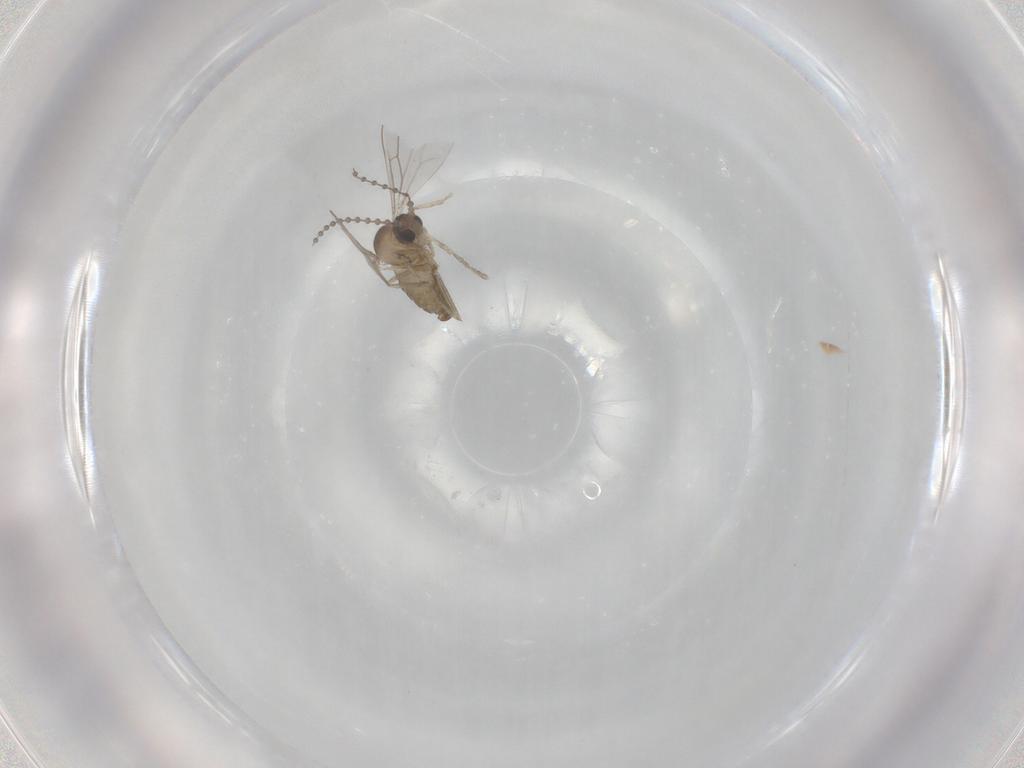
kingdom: Animalia
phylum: Arthropoda
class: Insecta
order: Diptera
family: Cecidomyiidae
